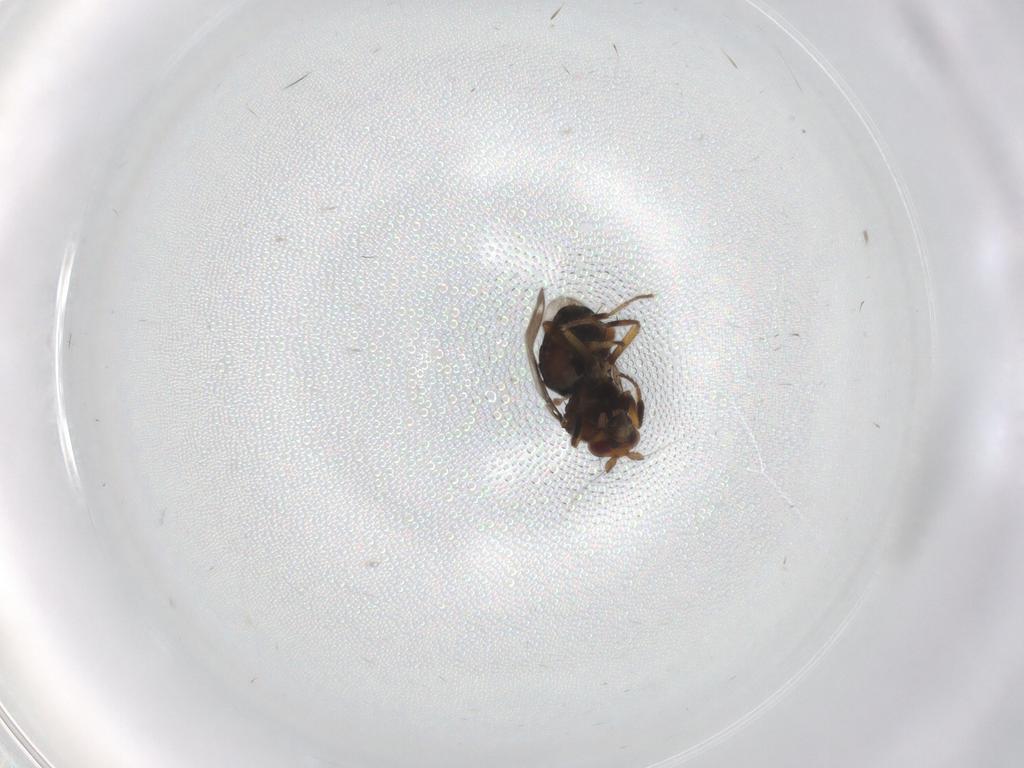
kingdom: Animalia
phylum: Arthropoda
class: Insecta
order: Diptera
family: Sphaeroceridae
